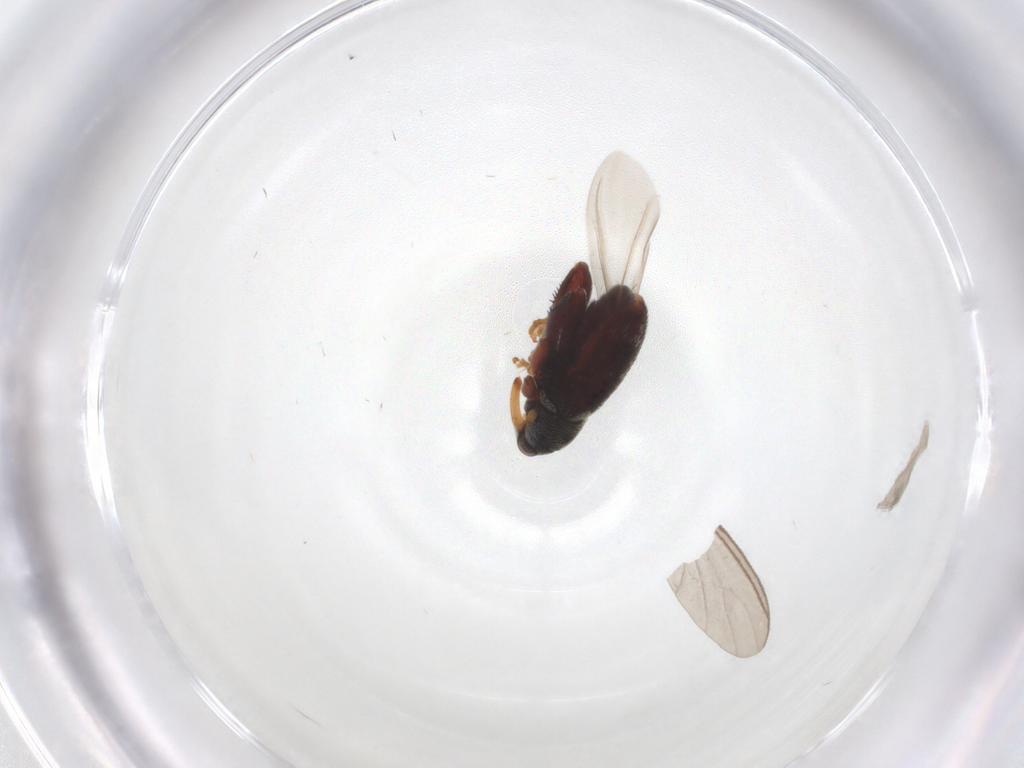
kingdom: Animalia
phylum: Arthropoda
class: Insecta
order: Coleoptera
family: Curculionidae
